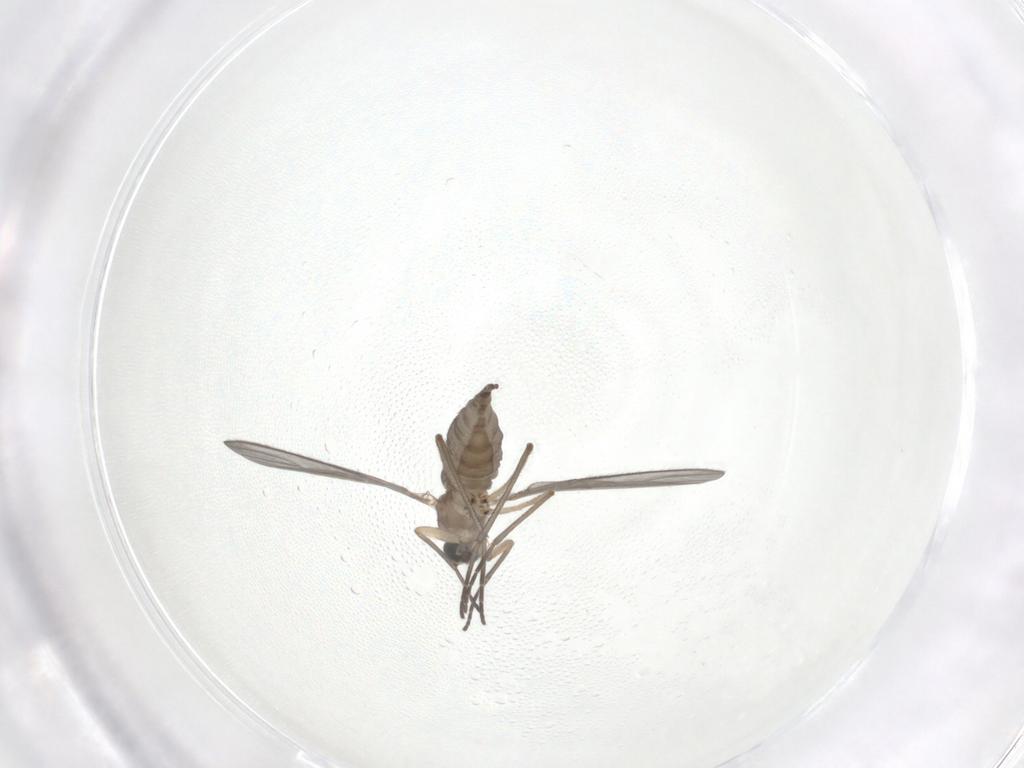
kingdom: Animalia
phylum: Arthropoda
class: Insecta
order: Diptera
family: Sciaridae
